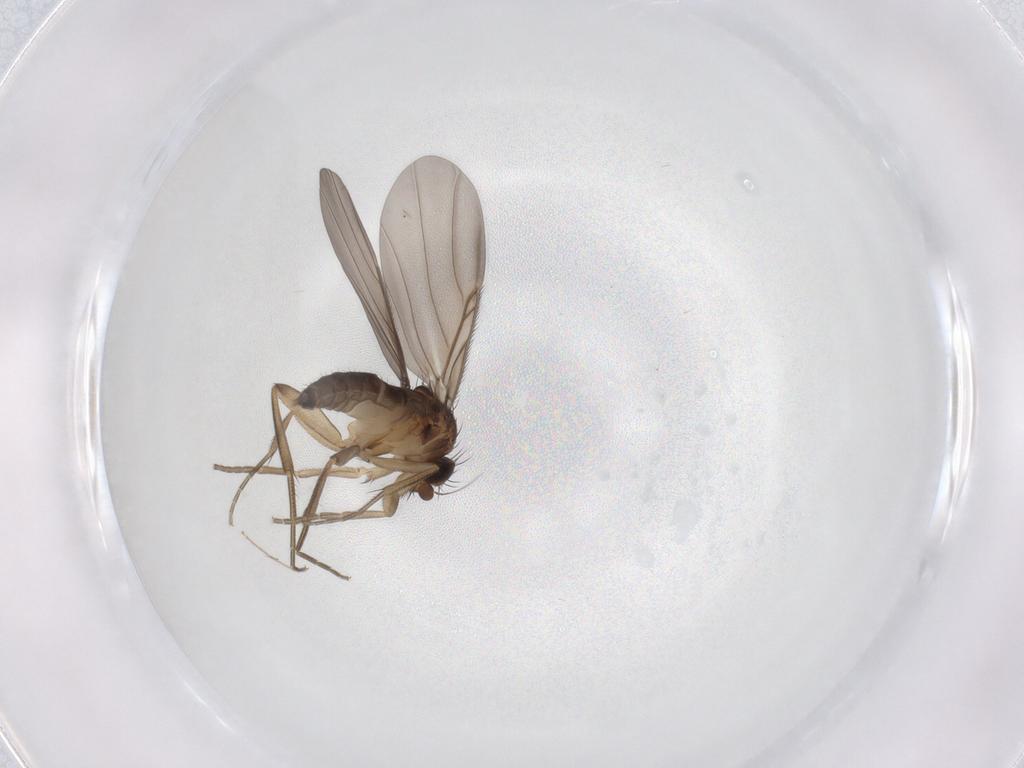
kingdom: Animalia
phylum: Arthropoda
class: Insecta
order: Diptera
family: Phoridae
